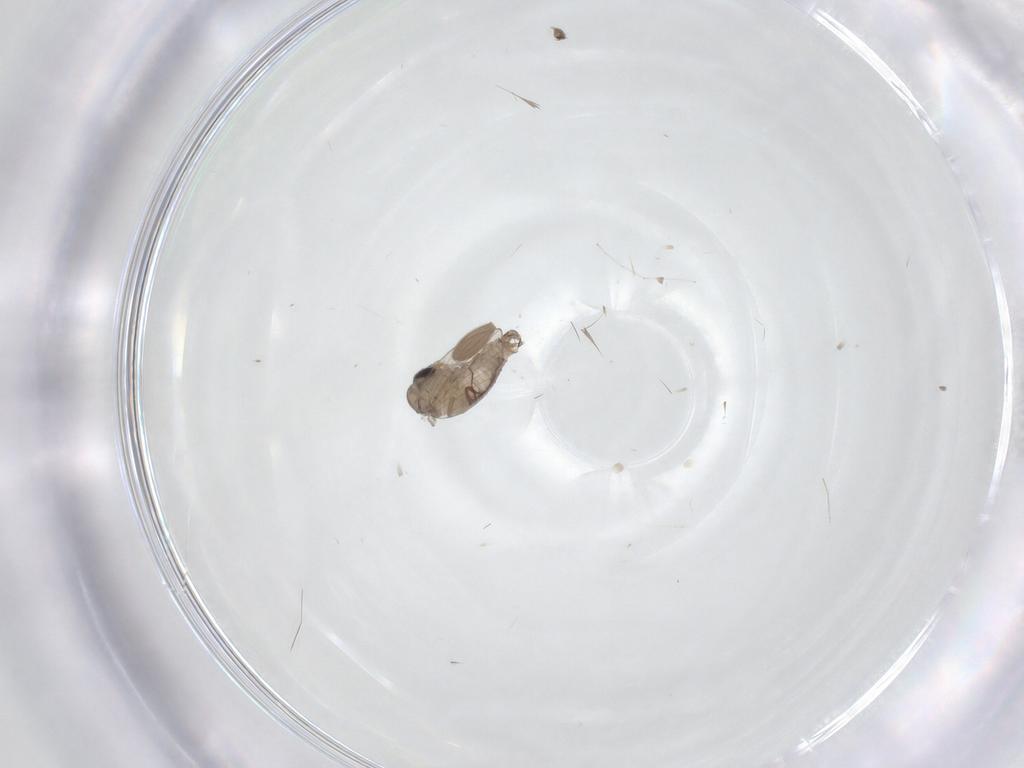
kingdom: Animalia
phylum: Arthropoda
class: Insecta
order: Diptera
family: Psychodidae
